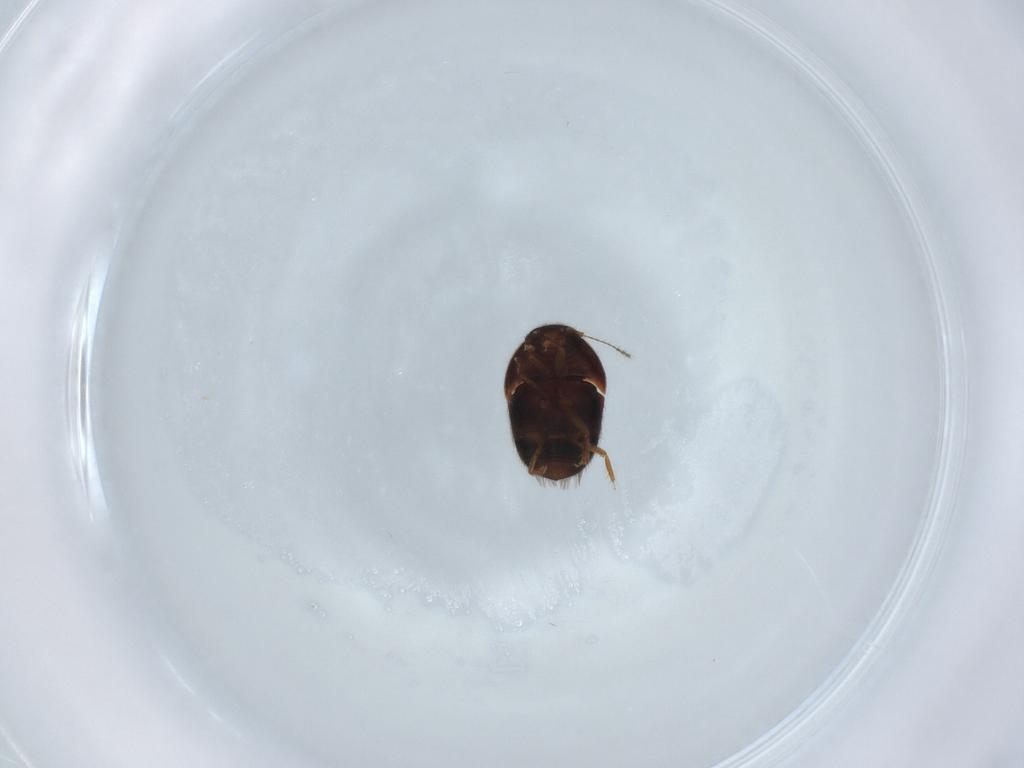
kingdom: Animalia
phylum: Arthropoda
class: Insecta
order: Coleoptera
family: Ptiliidae
